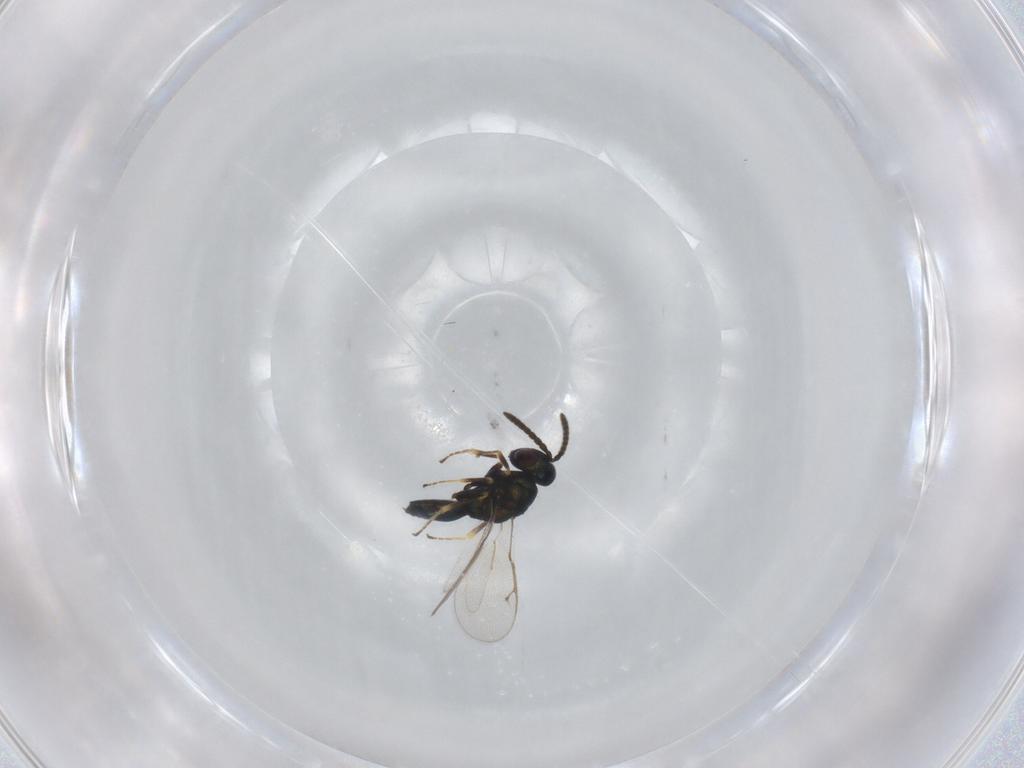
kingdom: Animalia
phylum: Arthropoda
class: Insecta
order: Hymenoptera
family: Pteromalidae
